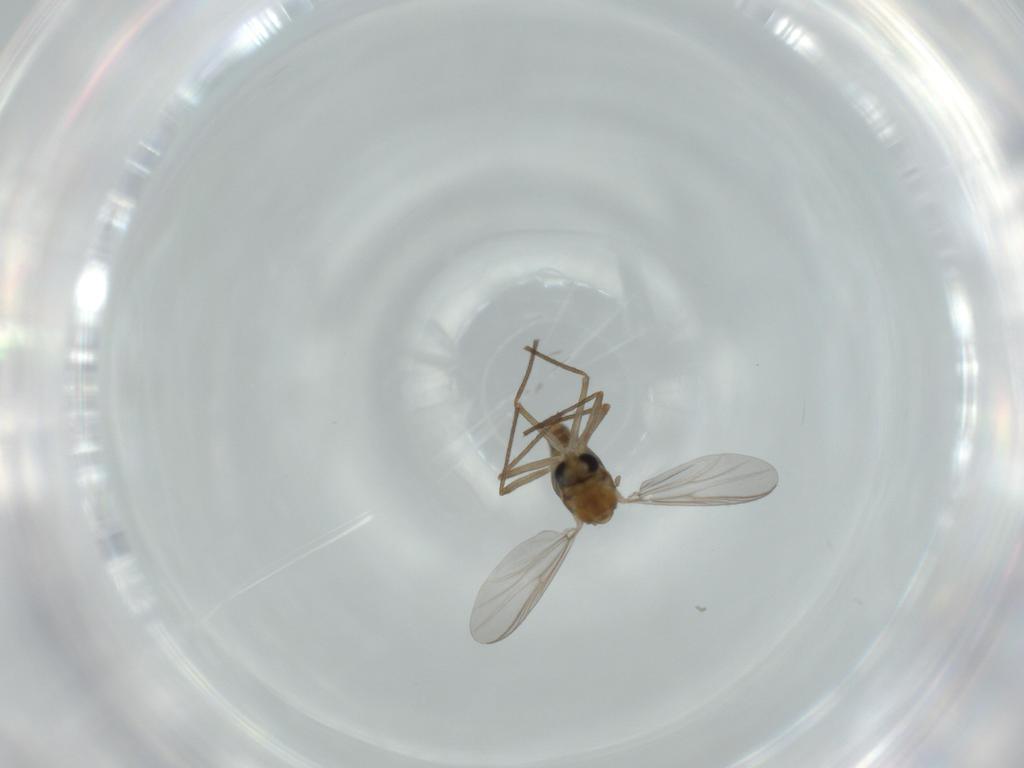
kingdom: Animalia
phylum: Arthropoda
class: Insecta
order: Diptera
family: Chironomidae
